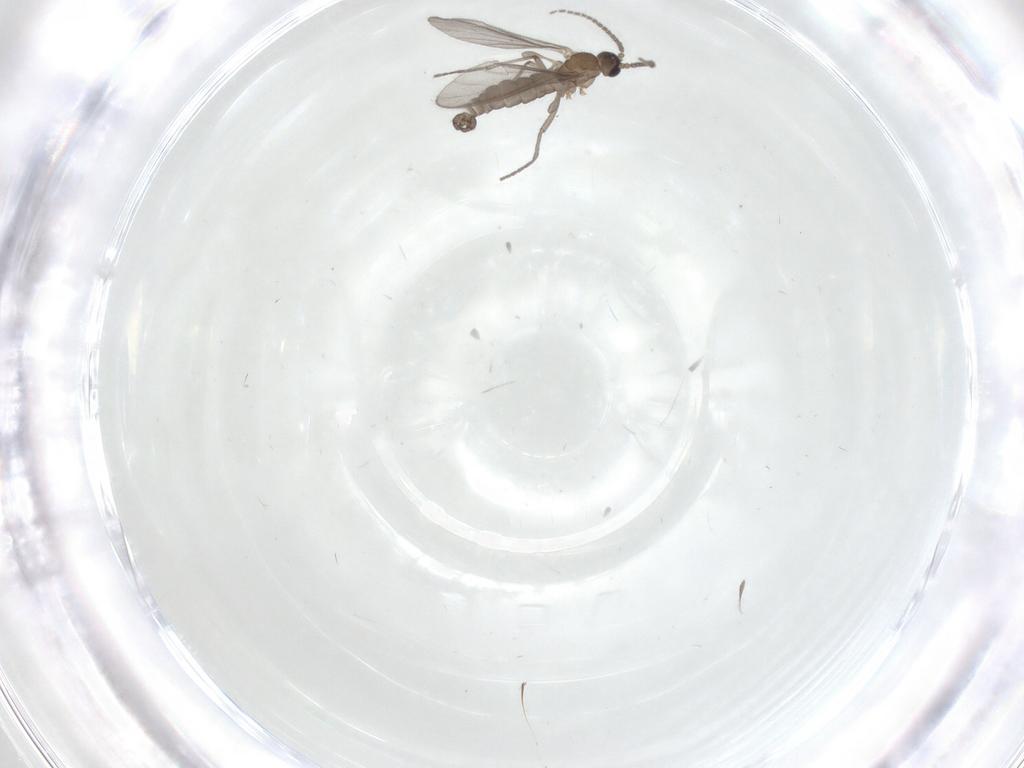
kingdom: Animalia
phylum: Arthropoda
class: Insecta
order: Diptera
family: Sciaridae
